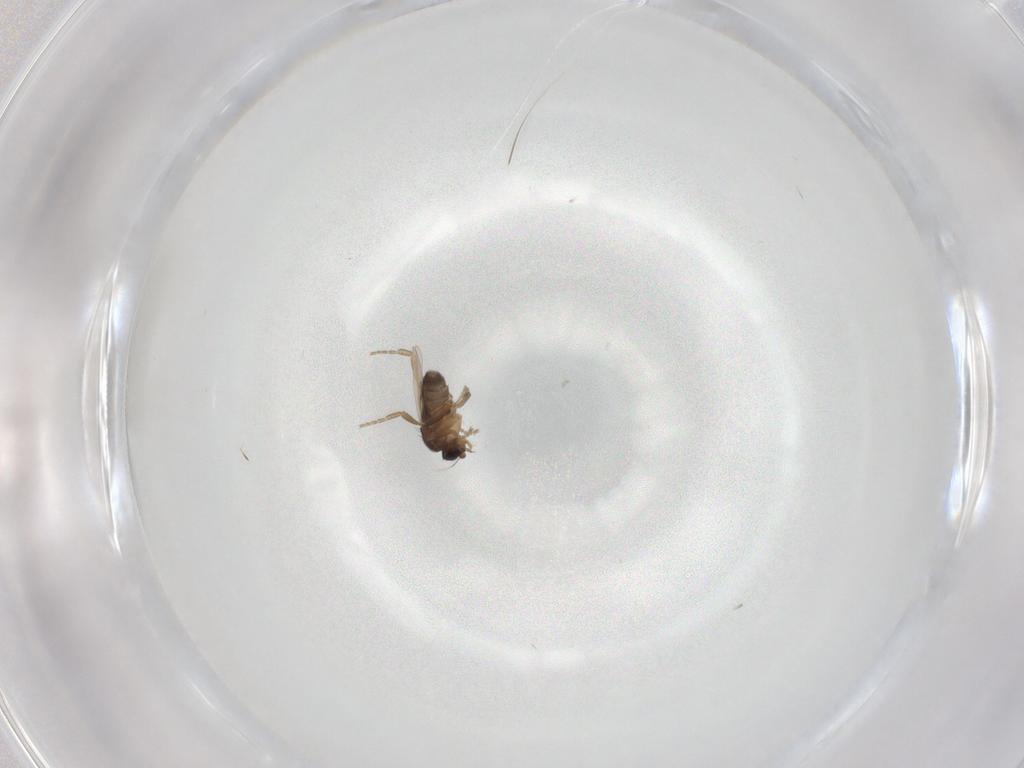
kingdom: Animalia
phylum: Arthropoda
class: Insecta
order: Diptera
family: Phoridae
